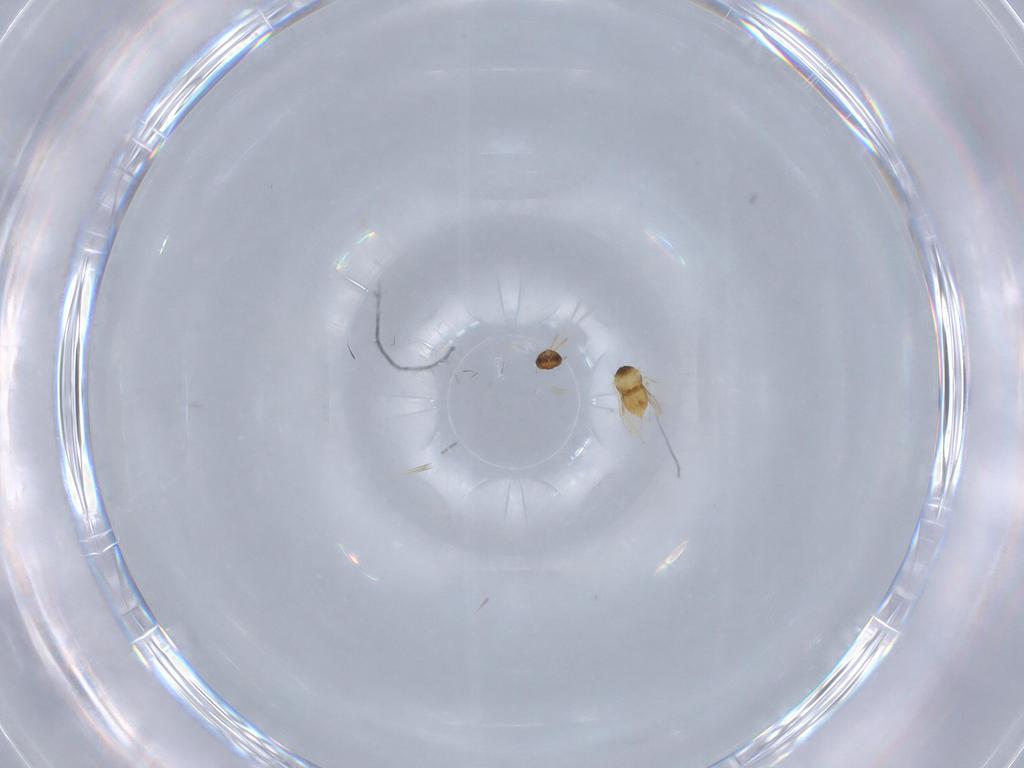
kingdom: Animalia
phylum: Arthropoda
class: Insecta
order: Hymenoptera
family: Aphelinidae
